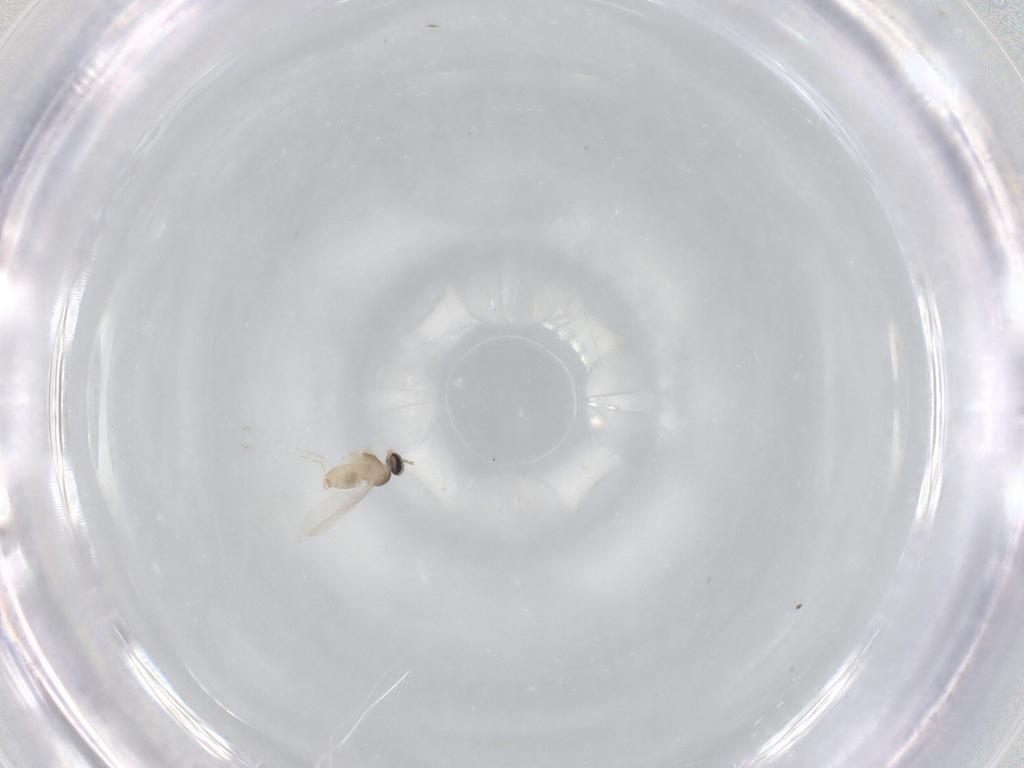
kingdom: Animalia
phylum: Arthropoda
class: Insecta
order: Diptera
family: Cecidomyiidae
